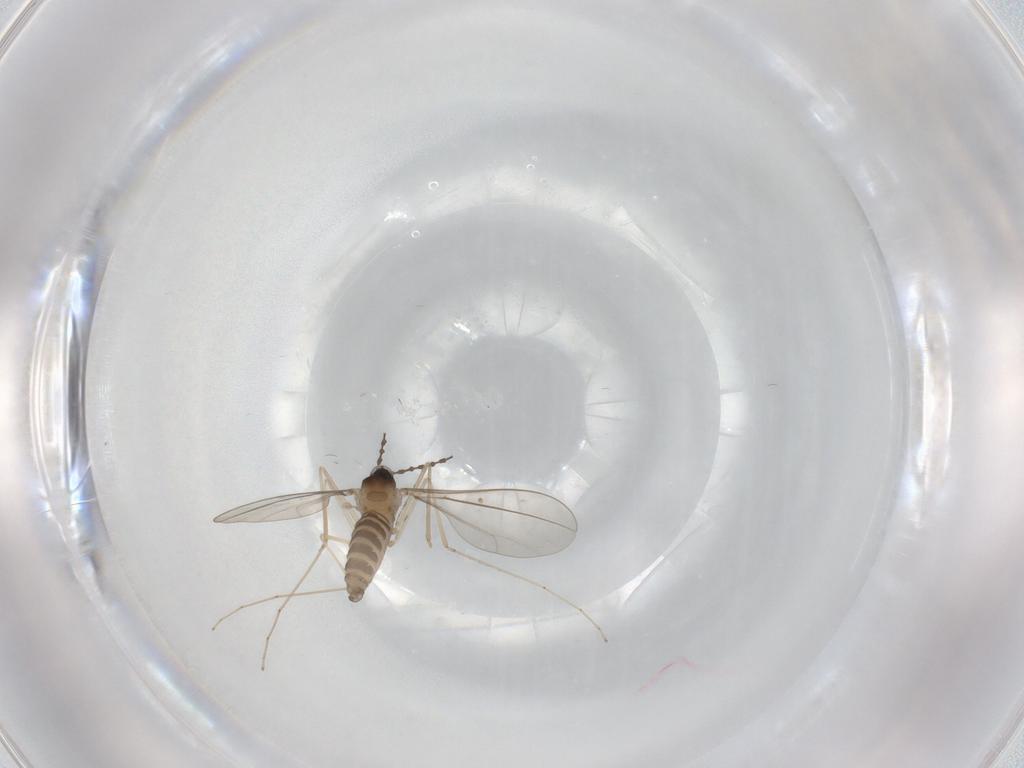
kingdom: Animalia
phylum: Arthropoda
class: Insecta
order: Diptera
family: Cecidomyiidae
